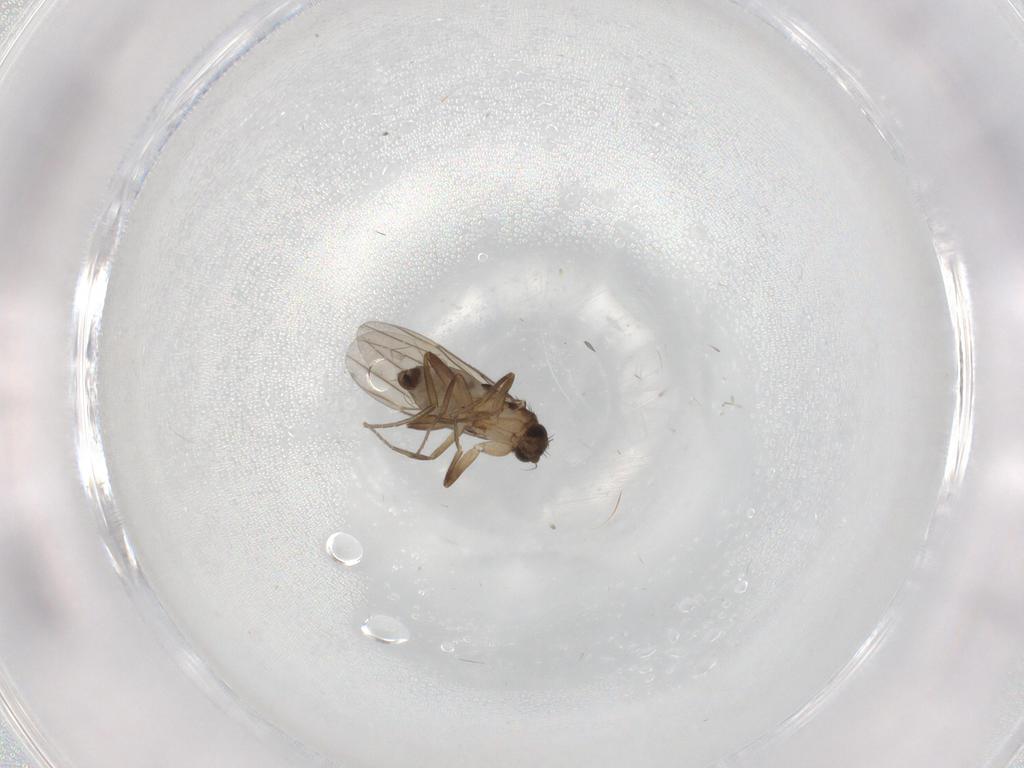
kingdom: Animalia
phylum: Arthropoda
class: Insecta
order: Diptera
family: Phoridae
